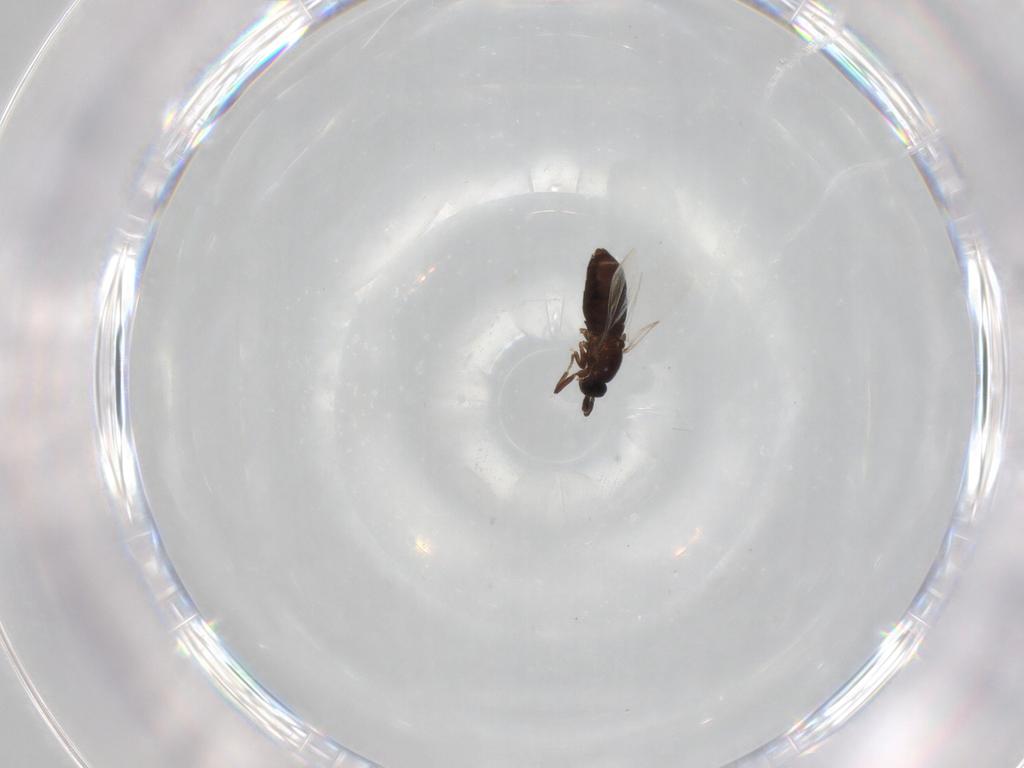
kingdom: Animalia
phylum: Arthropoda
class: Insecta
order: Diptera
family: Scatopsidae
